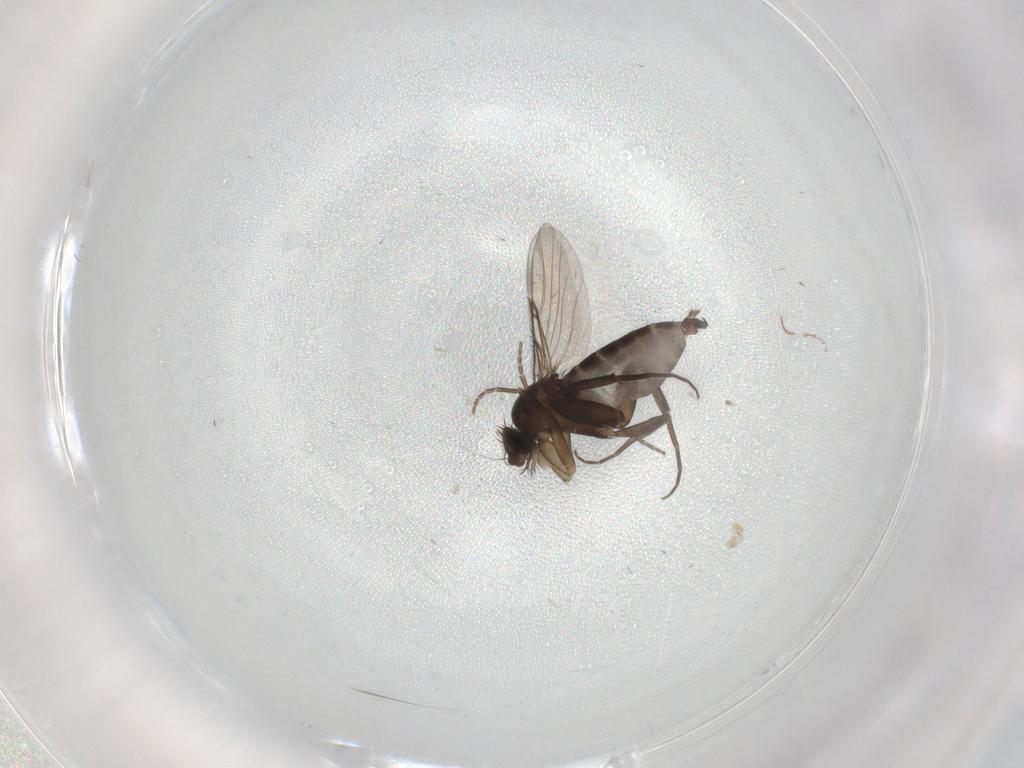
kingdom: Animalia
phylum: Arthropoda
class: Insecta
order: Diptera
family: Phoridae
